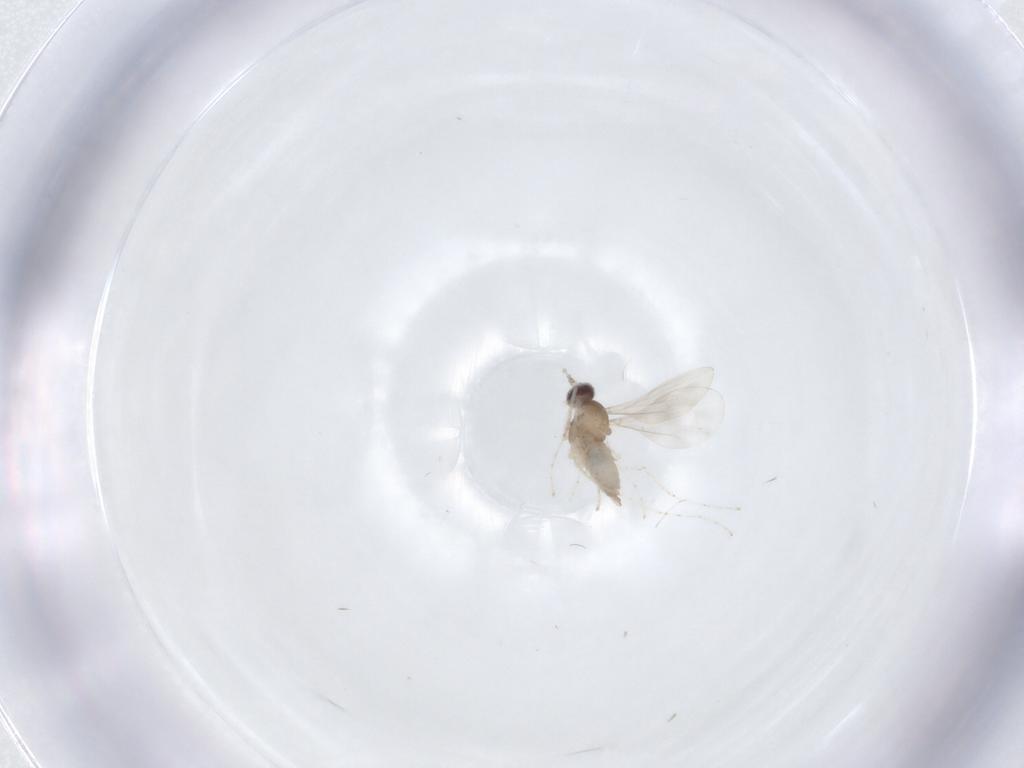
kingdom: Animalia
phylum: Arthropoda
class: Insecta
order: Diptera
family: Cecidomyiidae
